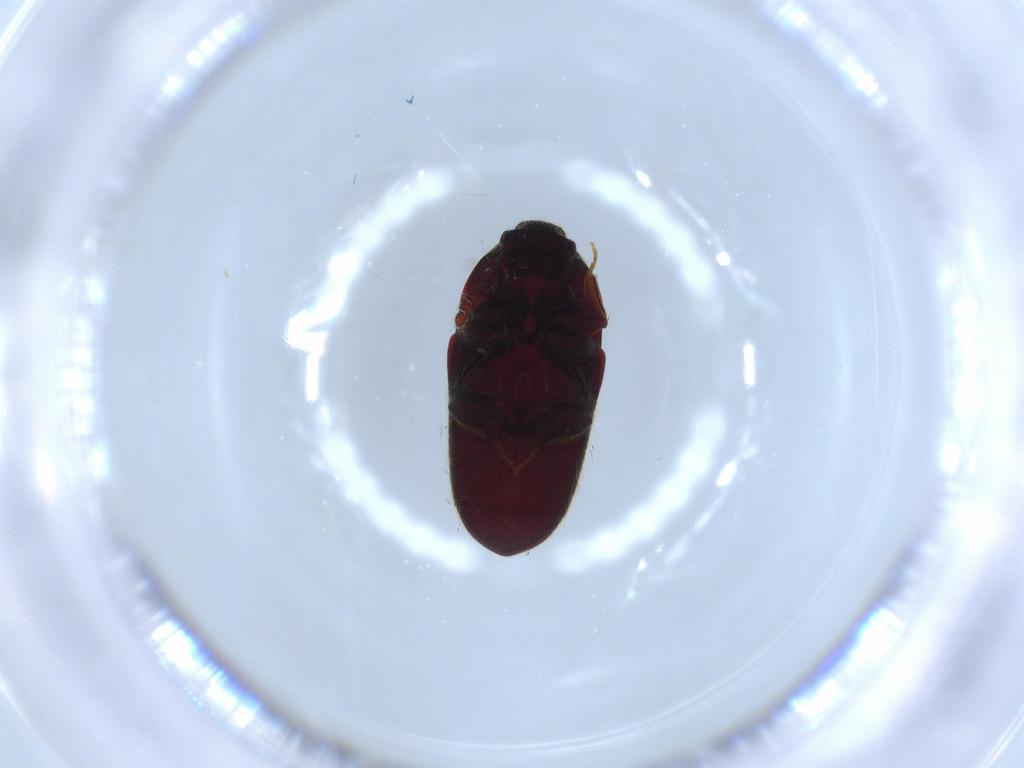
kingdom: Animalia
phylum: Arthropoda
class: Insecta
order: Coleoptera
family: Throscidae
